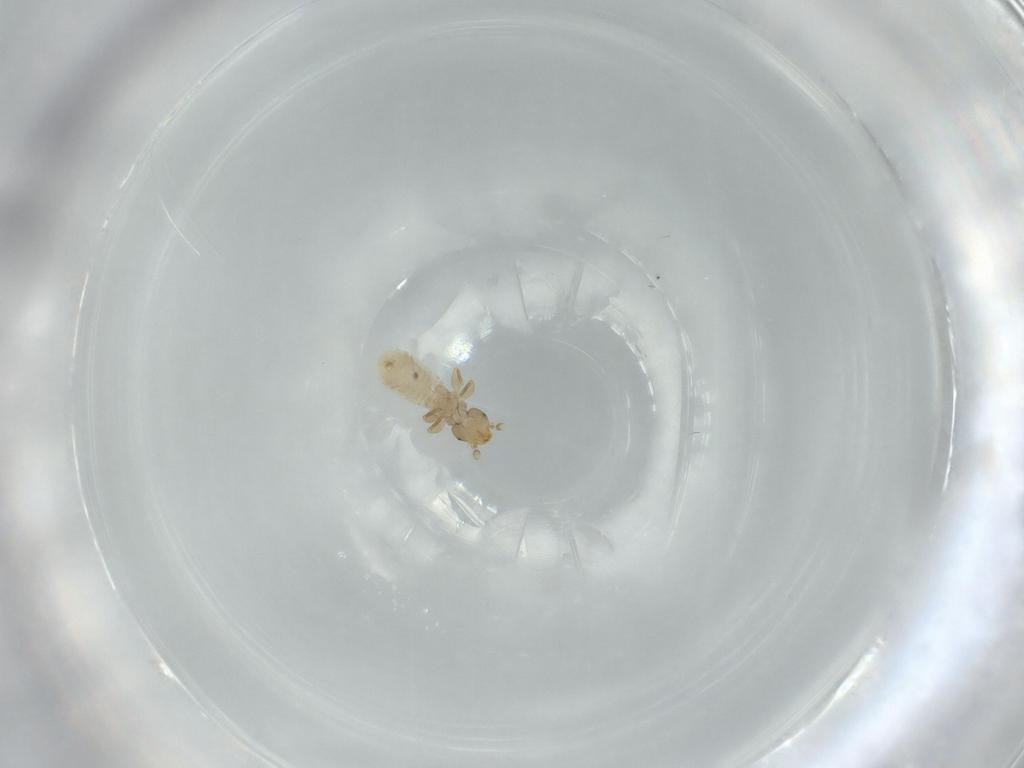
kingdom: Animalia
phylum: Arthropoda
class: Insecta
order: Psocodea
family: Liposcelididae
